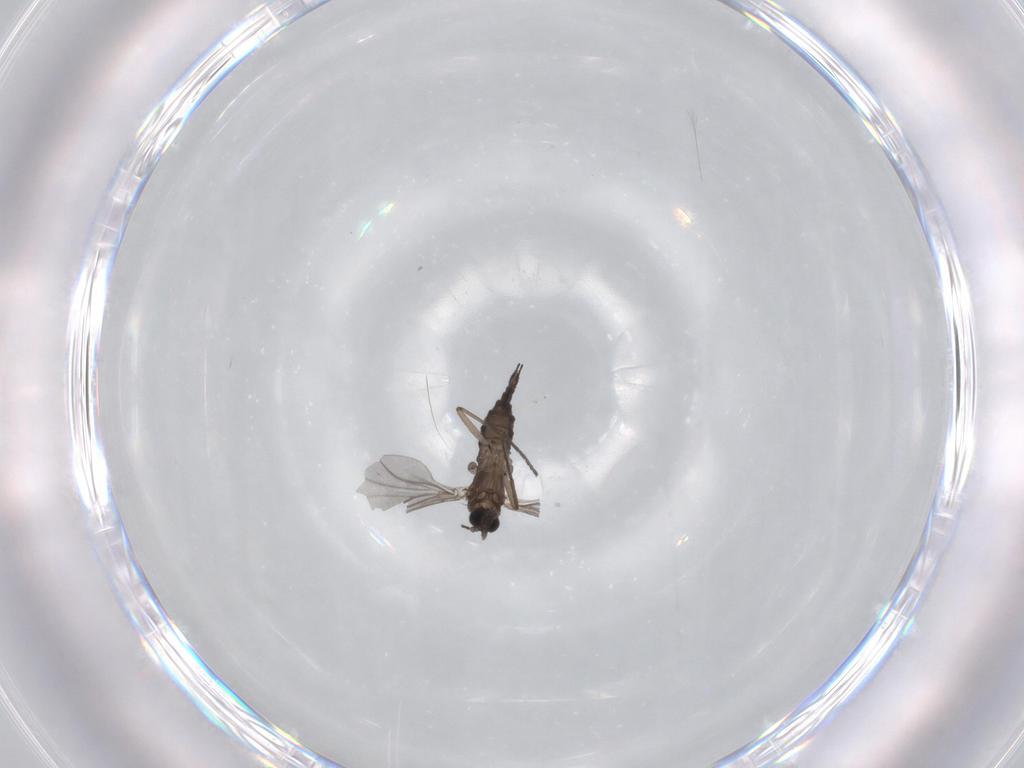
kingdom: Animalia
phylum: Arthropoda
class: Insecta
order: Diptera
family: Sciaridae
